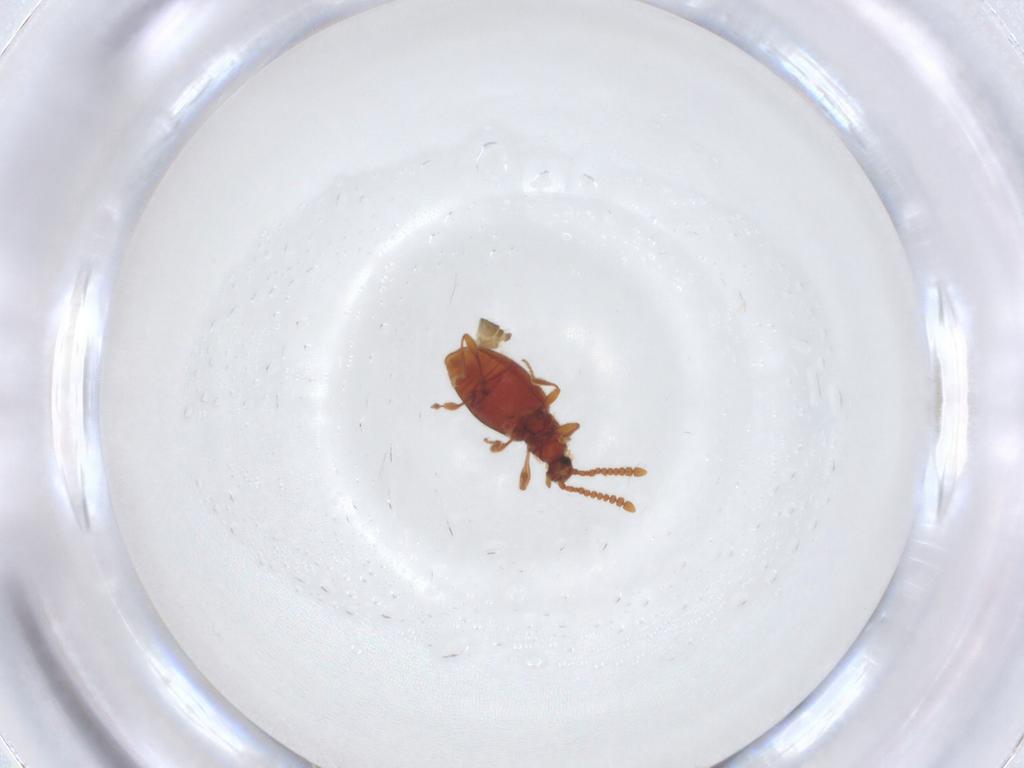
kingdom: Animalia
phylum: Arthropoda
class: Insecta
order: Coleoptera
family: Staphylinidae
